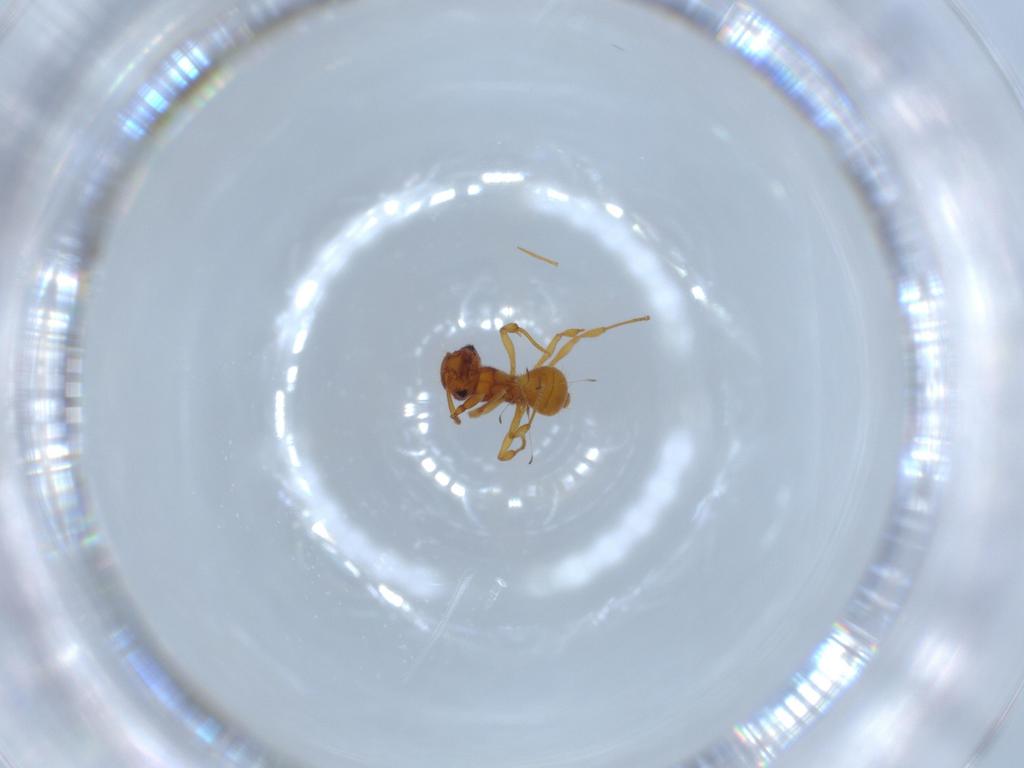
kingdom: Animalia
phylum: Arthropoda
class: Insecta
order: Hymenoptera
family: Formicidae
